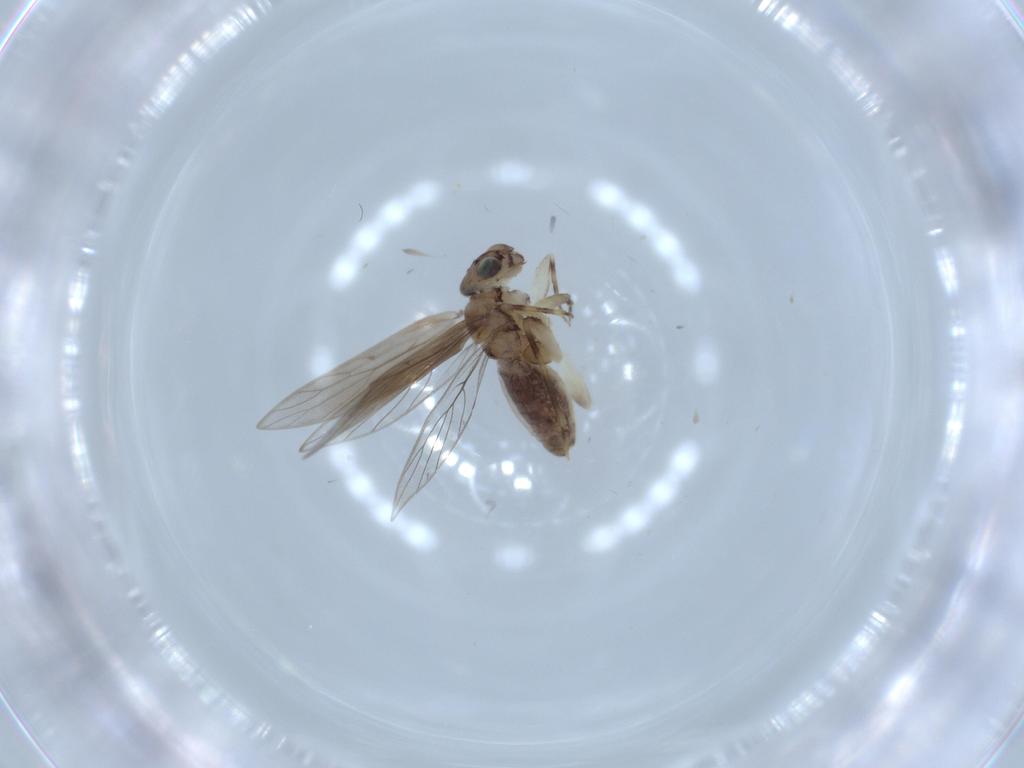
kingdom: Animalia
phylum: Arthropoda
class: Insecta
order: Psocodea
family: Lepidopsocidae
